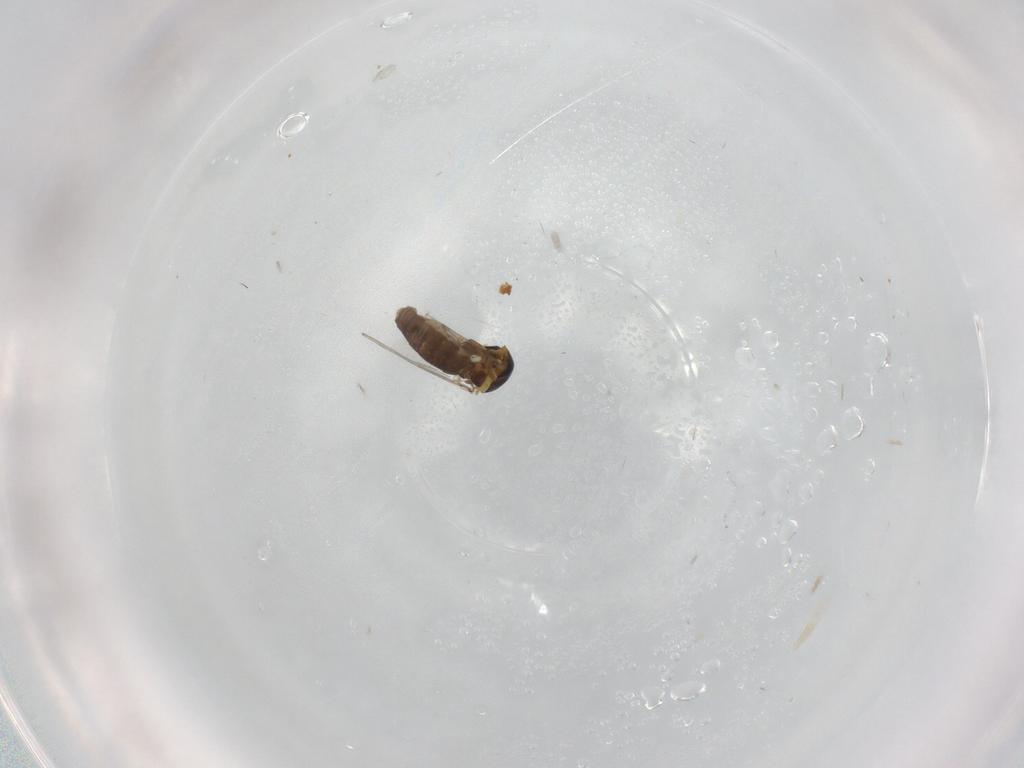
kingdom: Animalia
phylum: Arthropoda
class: Insecta
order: Diptera
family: Ceratopogonidae
